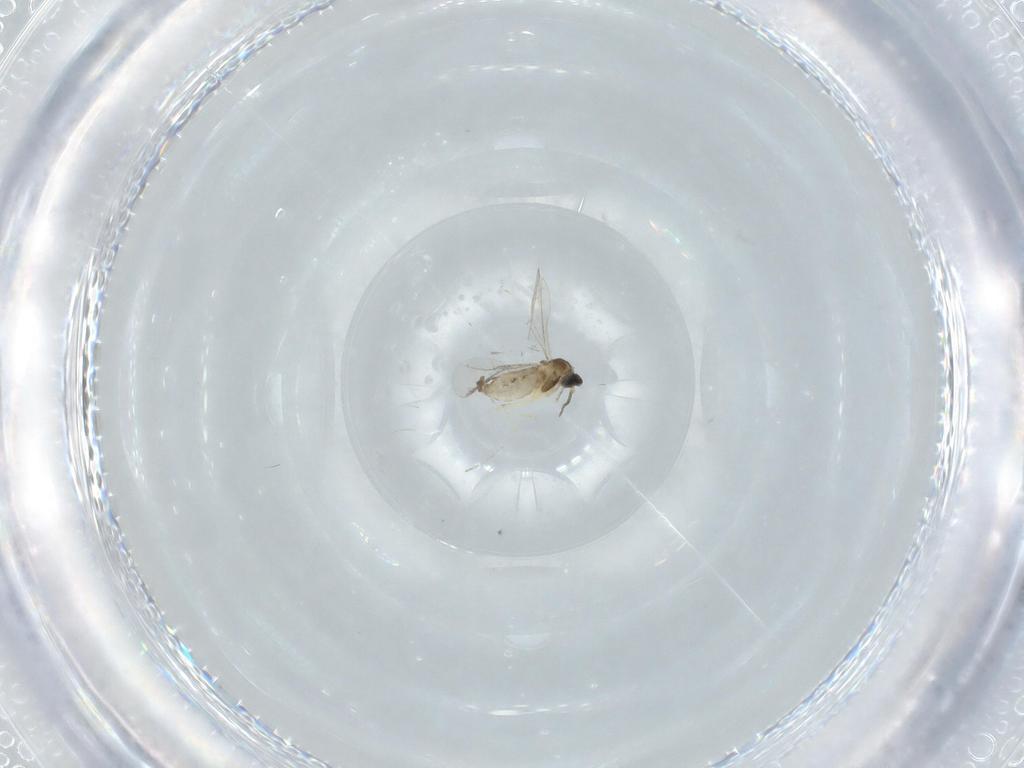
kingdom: Animalia
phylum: Arthropoda
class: Insecta
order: Diptera
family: Cecidomyiidae
